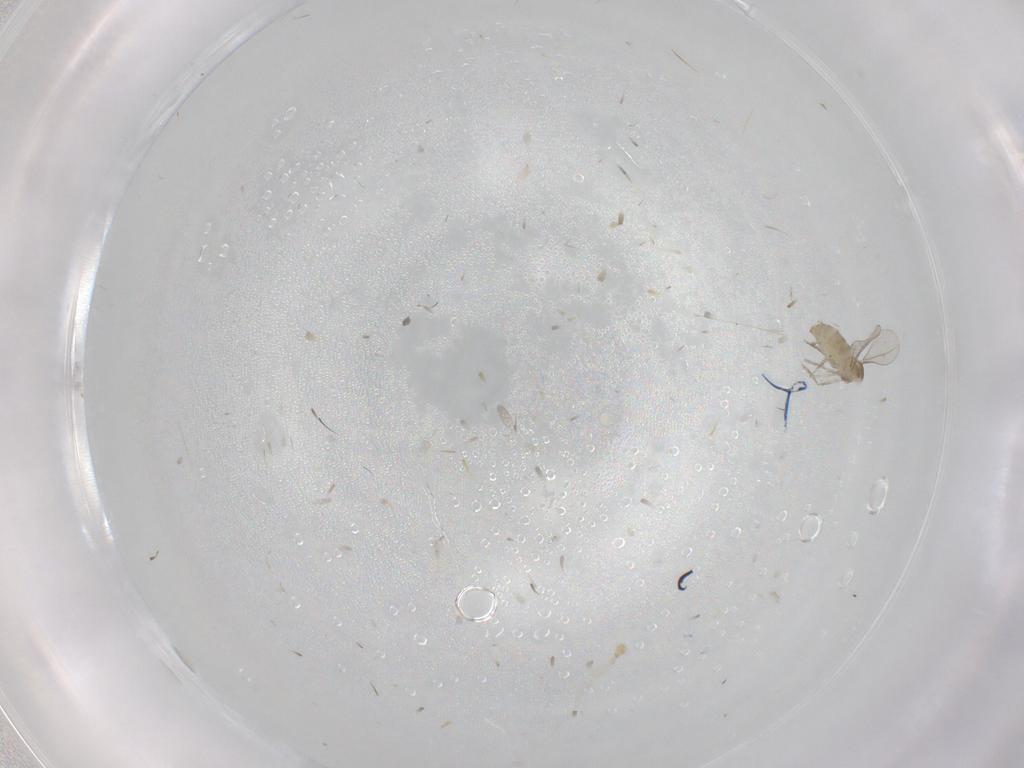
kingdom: Animalia
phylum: Arthropoda
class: Insecta
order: Diptera
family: Cecidomyiidae
